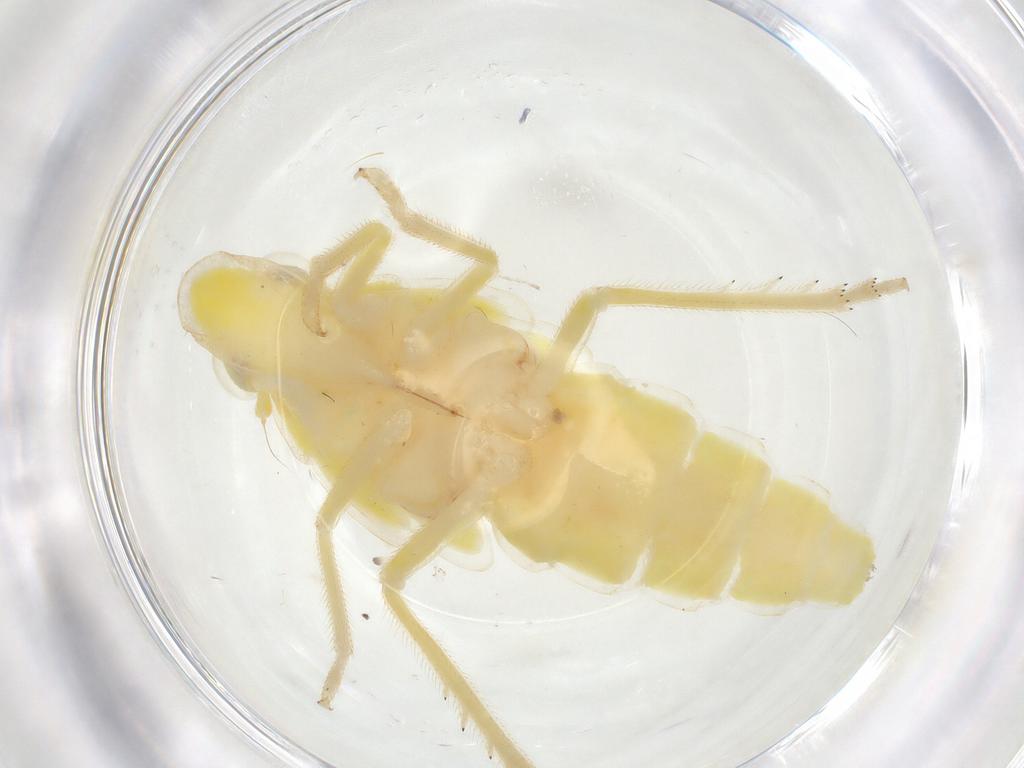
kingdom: Animalia
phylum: Arthropoda
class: Insecta
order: Hemiptera
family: Tropiduchidae
